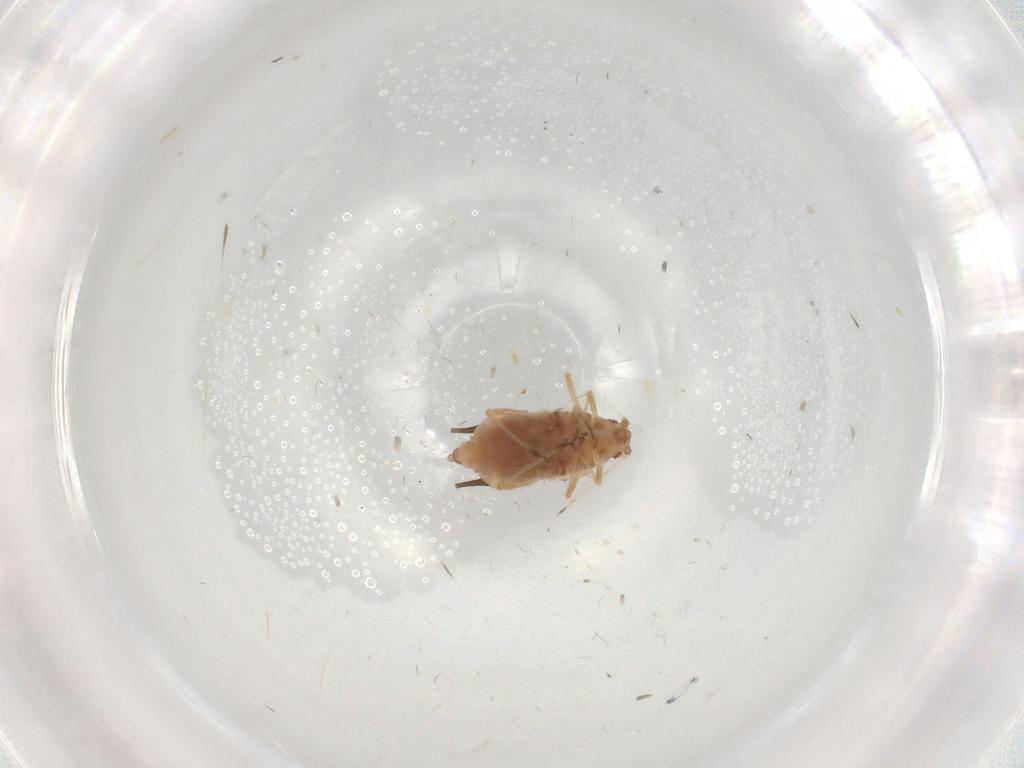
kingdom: Animalia
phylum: Arthropoda
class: Insecta
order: Hemiptera
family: Aphididae
